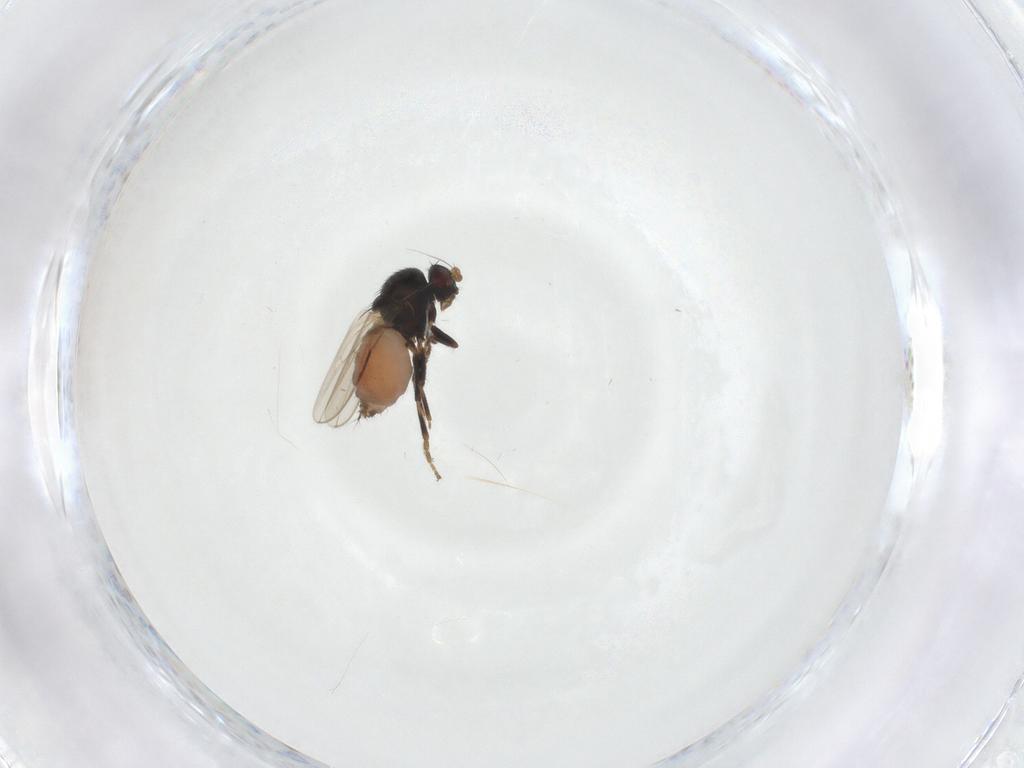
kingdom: Animalia
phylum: Arthropoda
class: Insecta
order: Diptera
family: Sphaeroceridae
